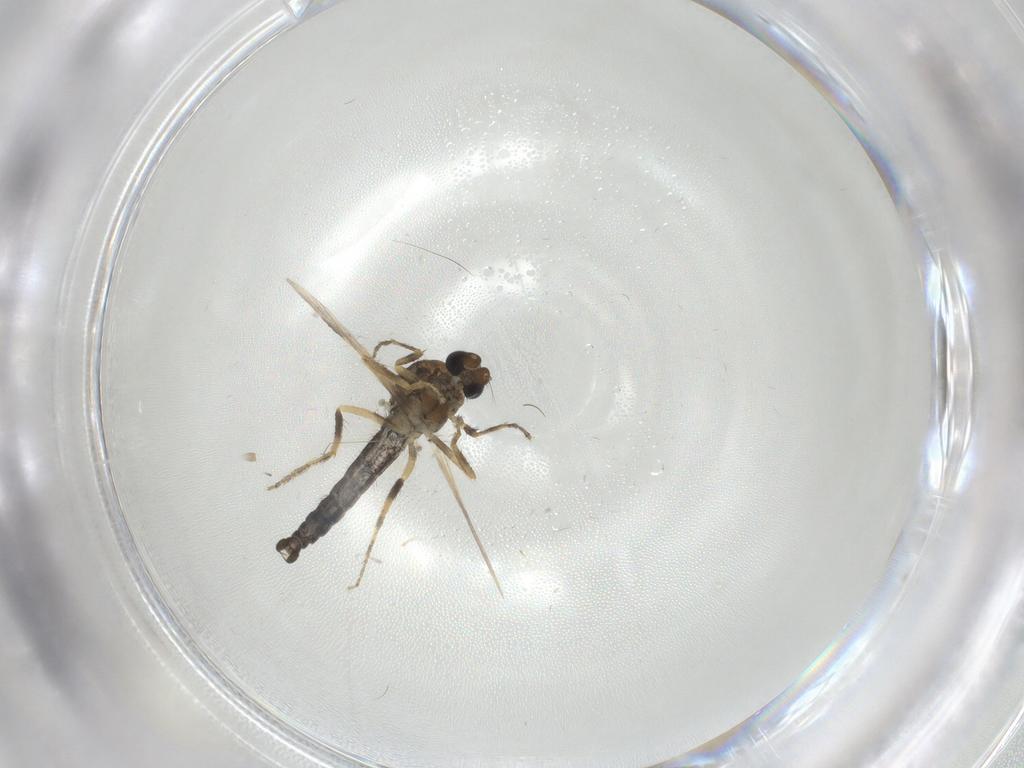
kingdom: Animalia
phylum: Arthropoda
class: Insecta
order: Diptera
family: Ceratopogonidae
